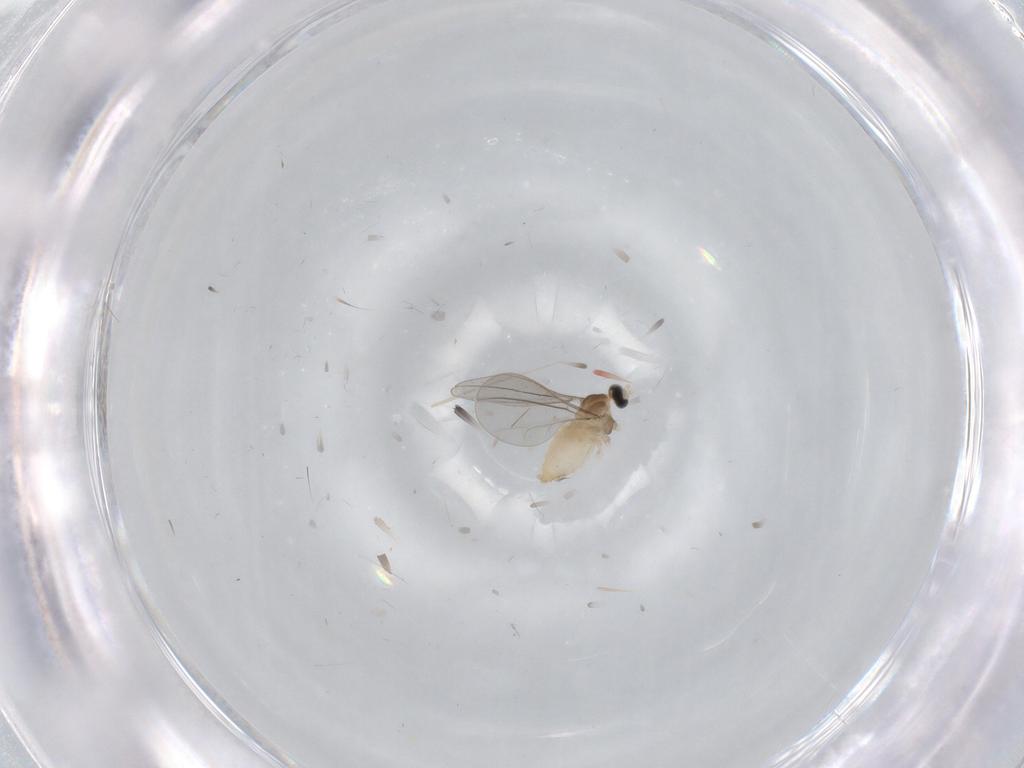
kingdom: Animalia
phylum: Arthropoda
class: Insecta
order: Diptera
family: Cecidomyiidae
